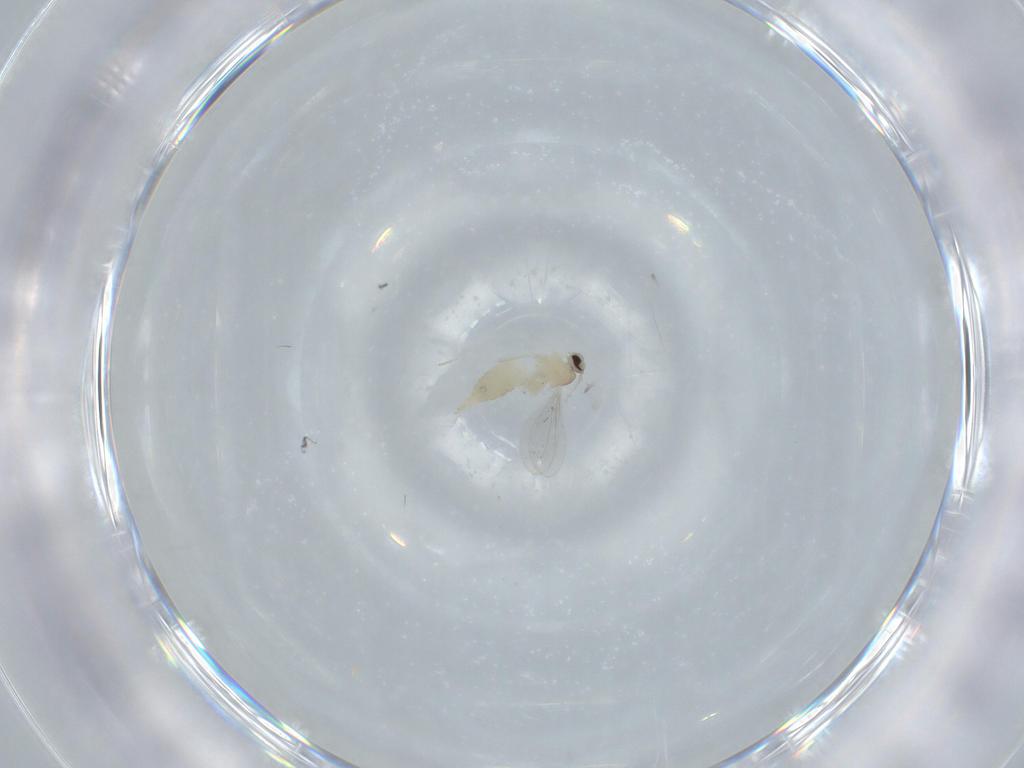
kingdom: Animalia
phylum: Arthropoda
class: Insecta
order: Diptera
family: Cecidomyiidae
